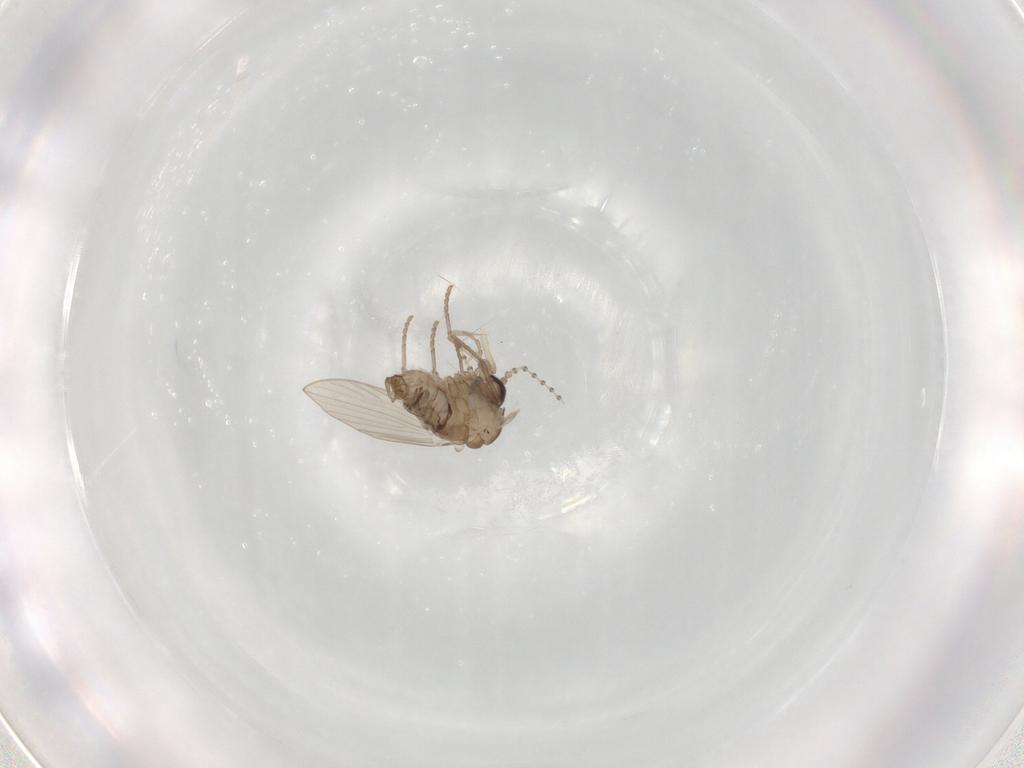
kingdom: Animalia
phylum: Arthropoda
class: Insecta
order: Diptera
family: Psychodidae
